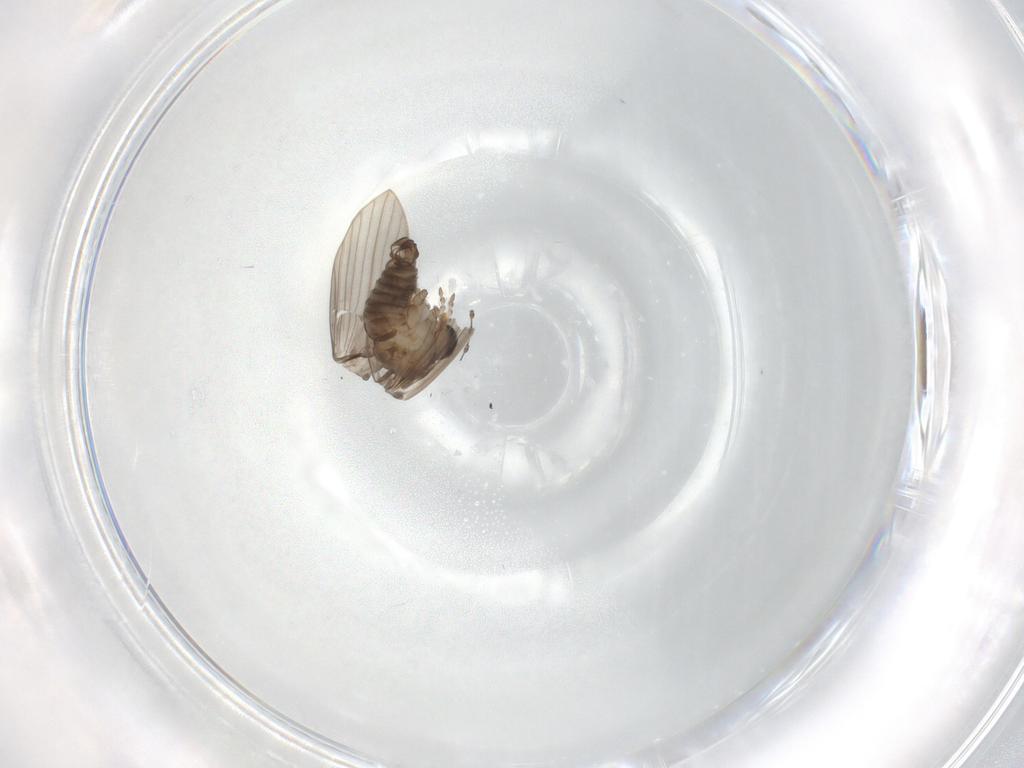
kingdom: Animalia
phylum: Arthropoda
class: Insecta
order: Diptera
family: Psychodidae
